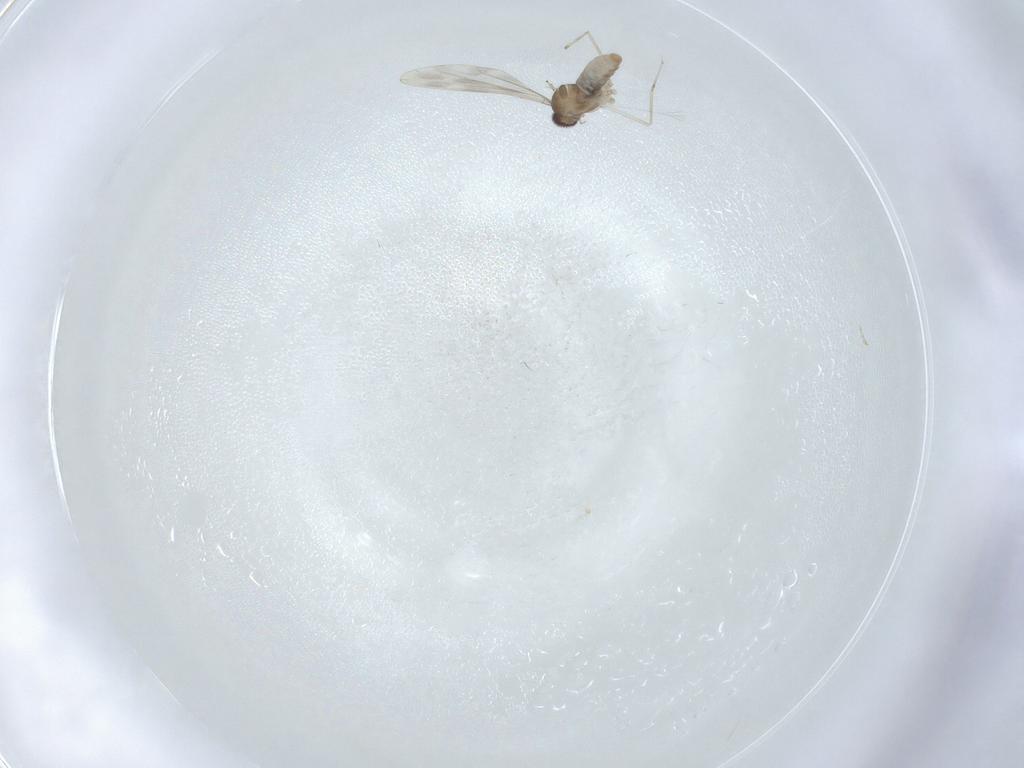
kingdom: Animalia
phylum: Arthropoda
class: Insecta
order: Diptera
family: Cecidomyiidae
